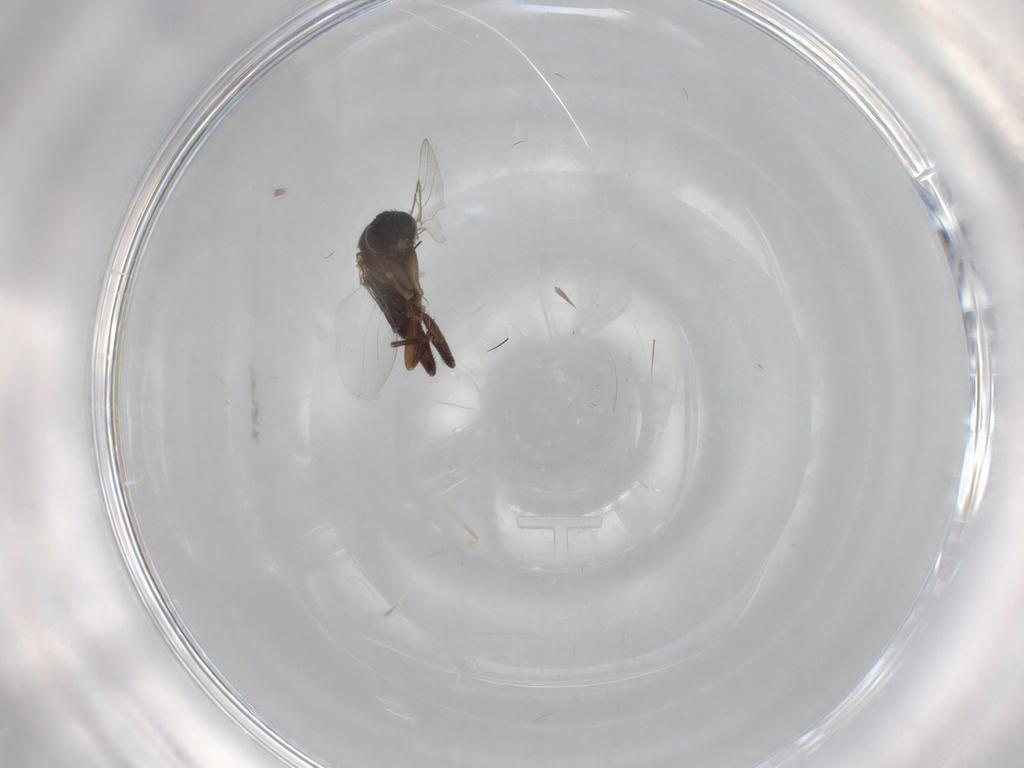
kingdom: Animalia
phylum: Arthropoda
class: Insecta
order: Diptera
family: Phoridae
